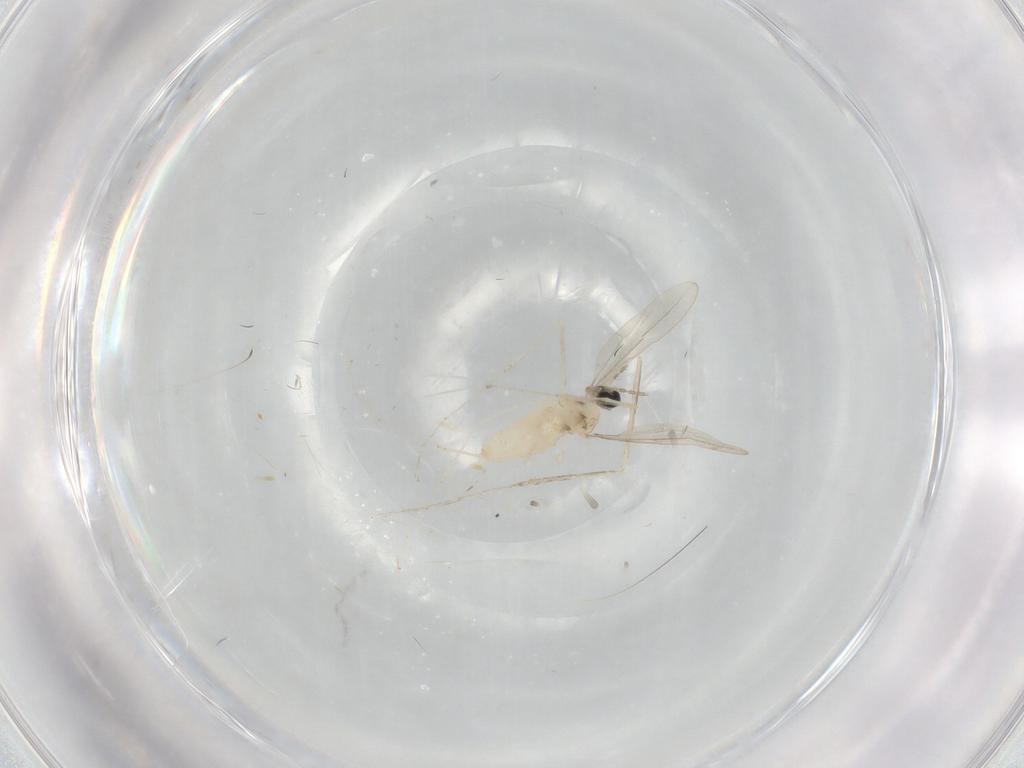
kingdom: Animalia
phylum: Arthropoda
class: Insecta
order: Diptera
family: Cecidomyiidae
